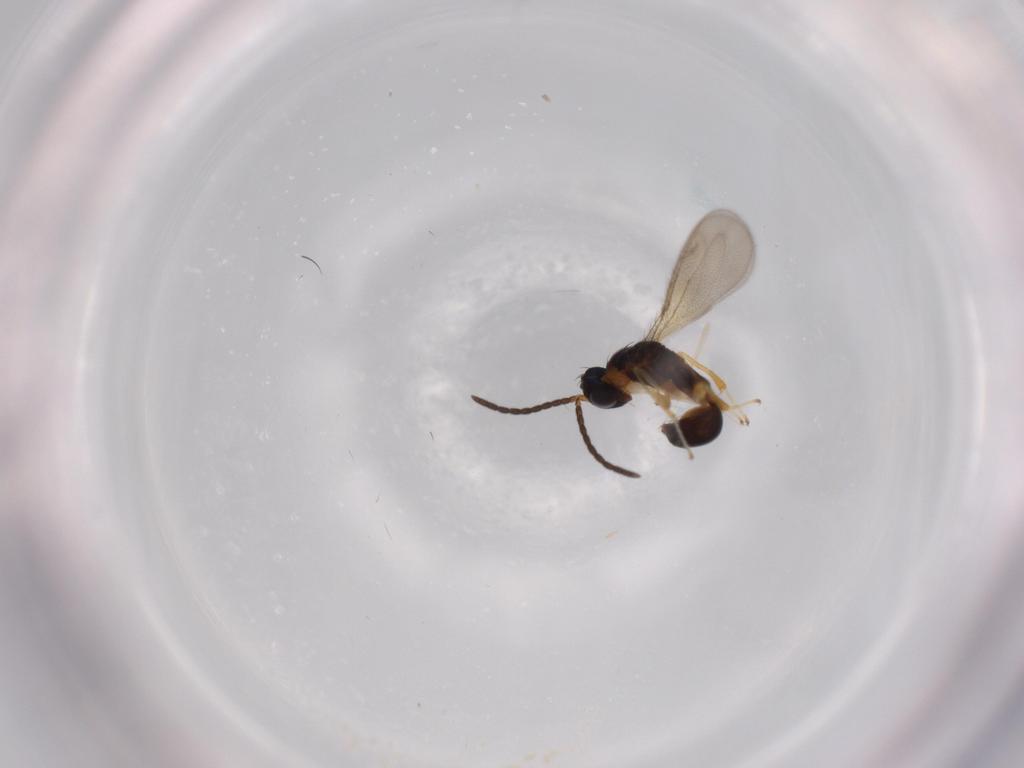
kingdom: Animalia
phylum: Arthropoda
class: Insecta
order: Hymenoptera
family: Diparidae
